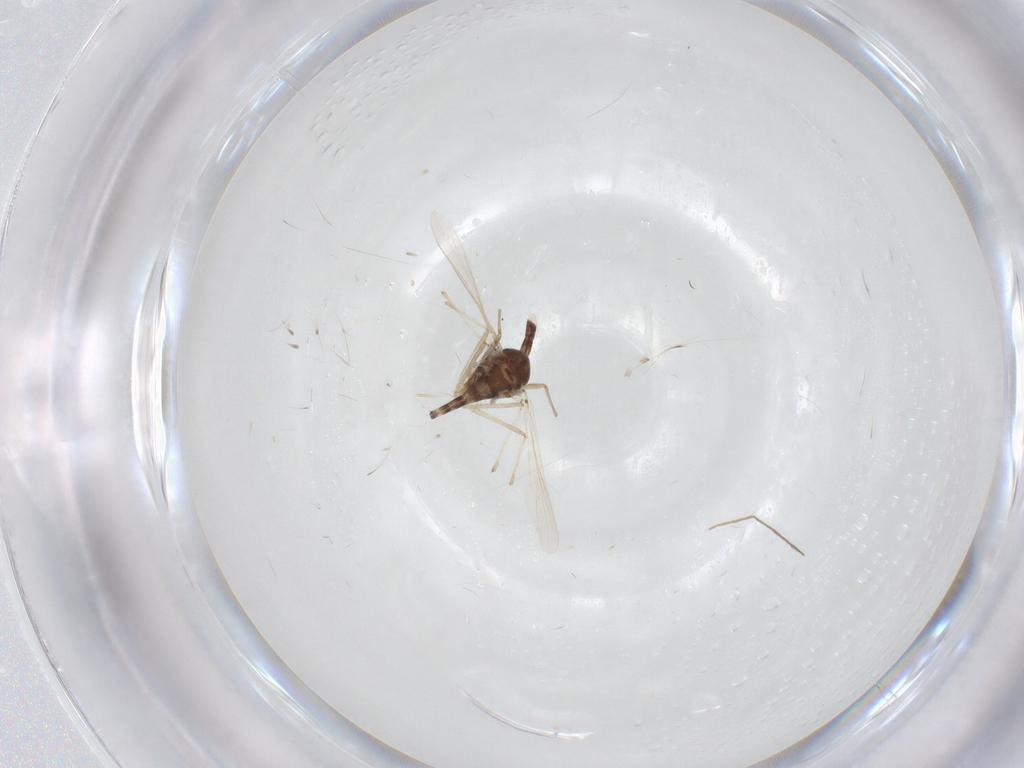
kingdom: Animalia
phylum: Arthropoda
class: Insecta
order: Diptera
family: Chironomidae
